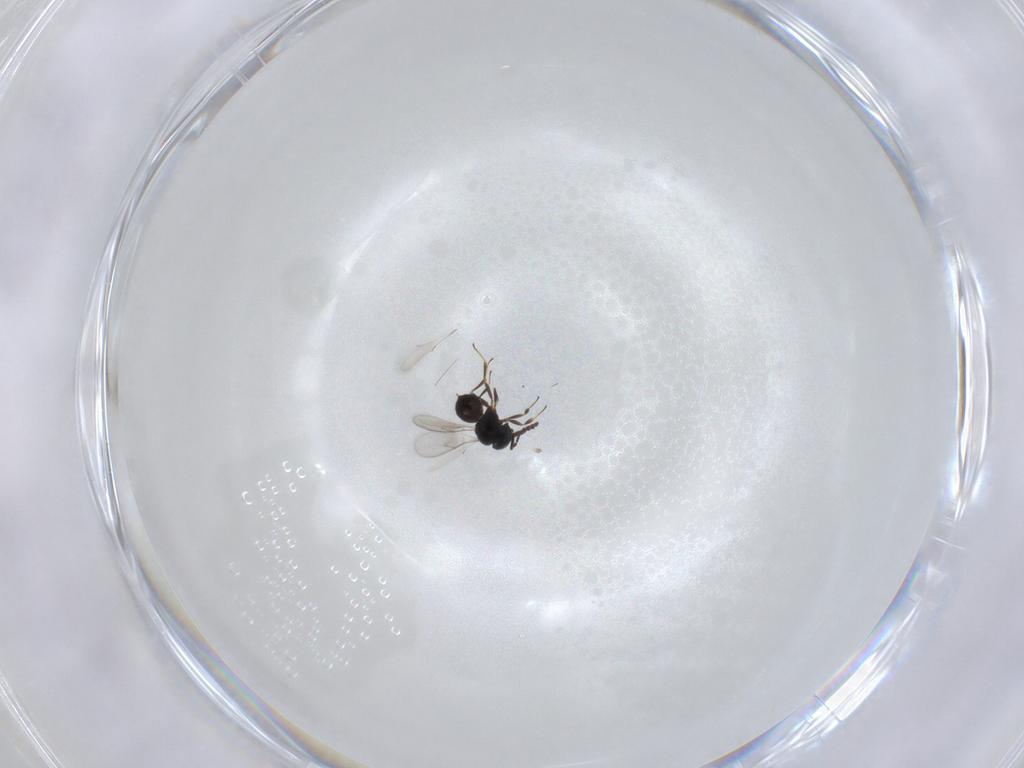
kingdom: Animalia
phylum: Arthropoda
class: Insecta
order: Hymenoptera
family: Scelionidae
